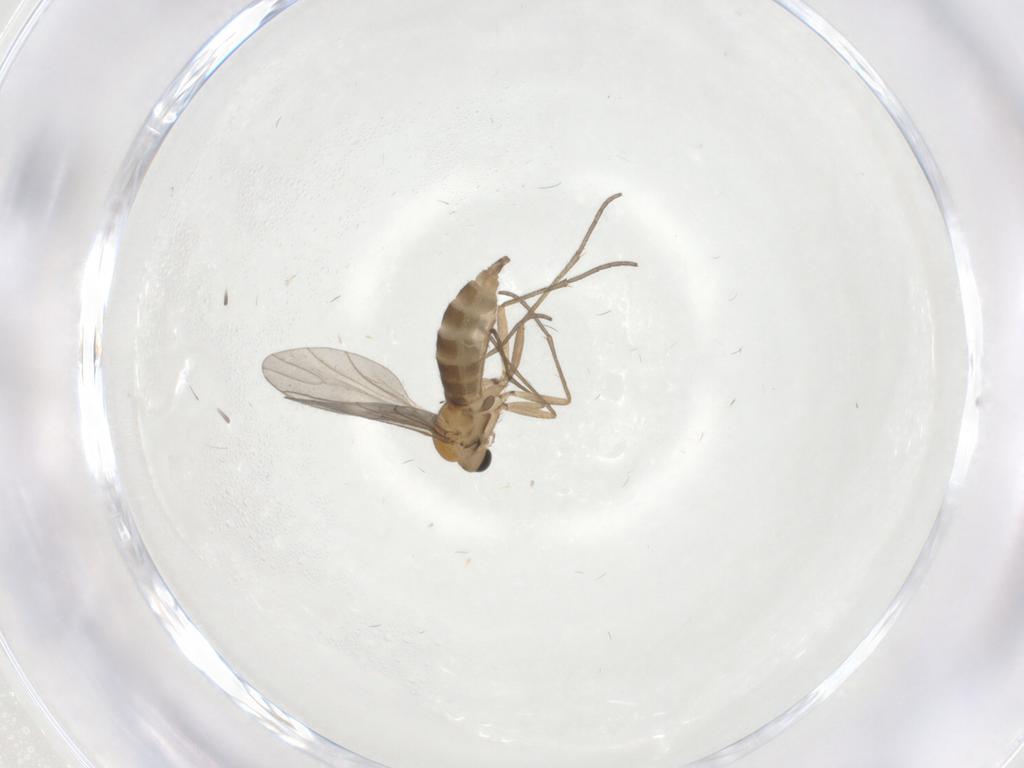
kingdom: Animalia
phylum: Arthropoda
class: Insecta
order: Diptera
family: Sciaridae
